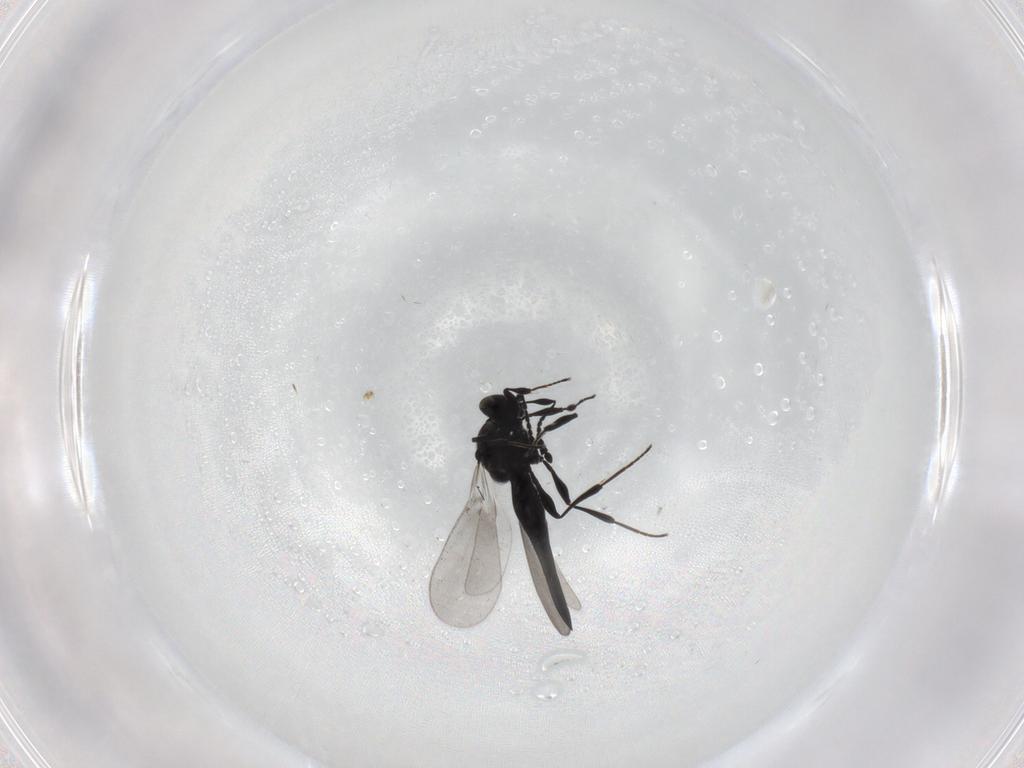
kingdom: Animalia
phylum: Arthropoda
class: Insecta
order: Hymenoptera
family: Platygastridae
